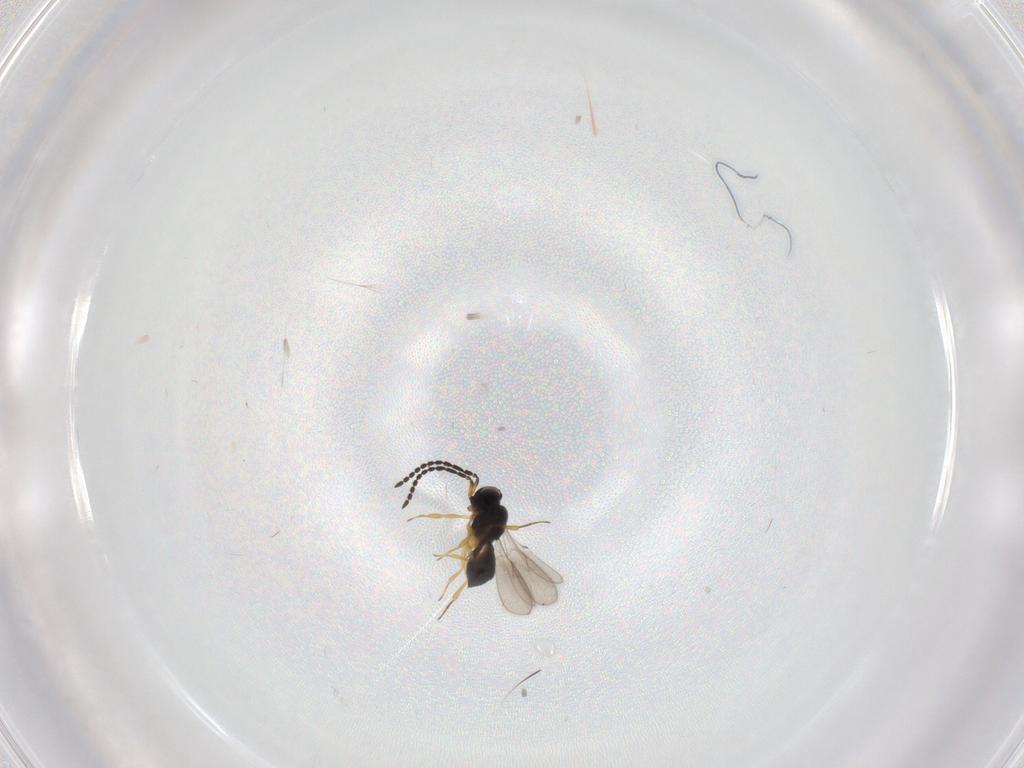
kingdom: Animalia
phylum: Arthropoda
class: Insecta
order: Hymenoptera
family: Scelionidae
